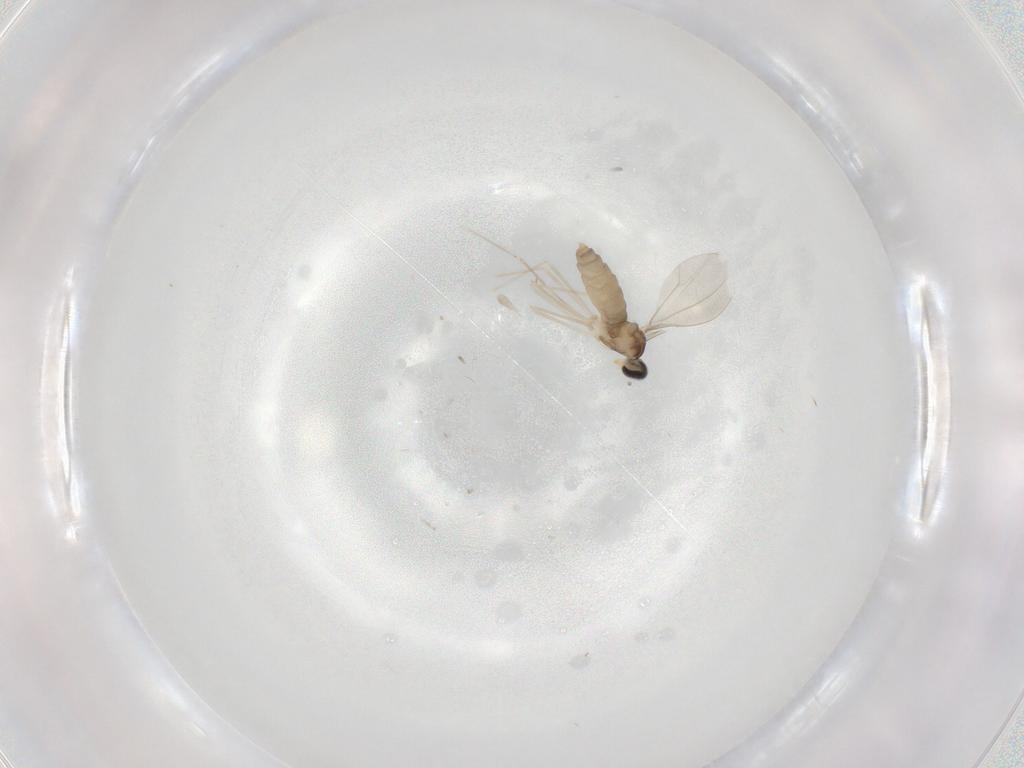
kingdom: Animalia
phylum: Arthropoda
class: Insecta
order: Diptera
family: Cecidomyiidae
